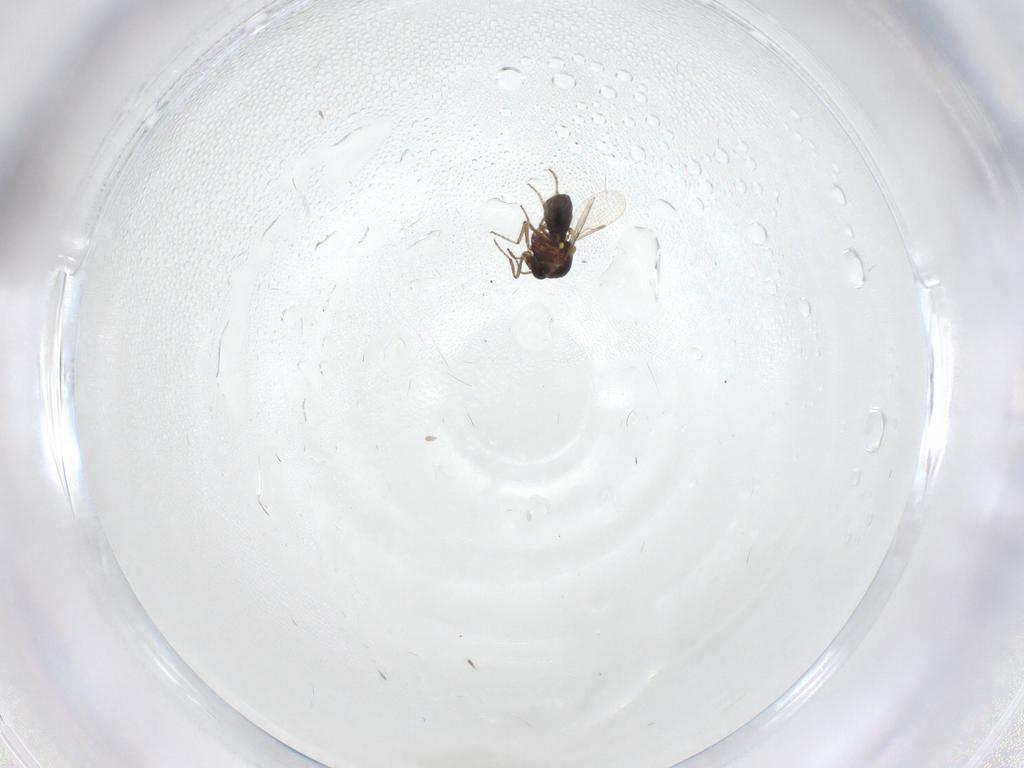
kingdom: Animalia
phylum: Arthropoda
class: Insecta
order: Diptera
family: Ceratopogonidae
